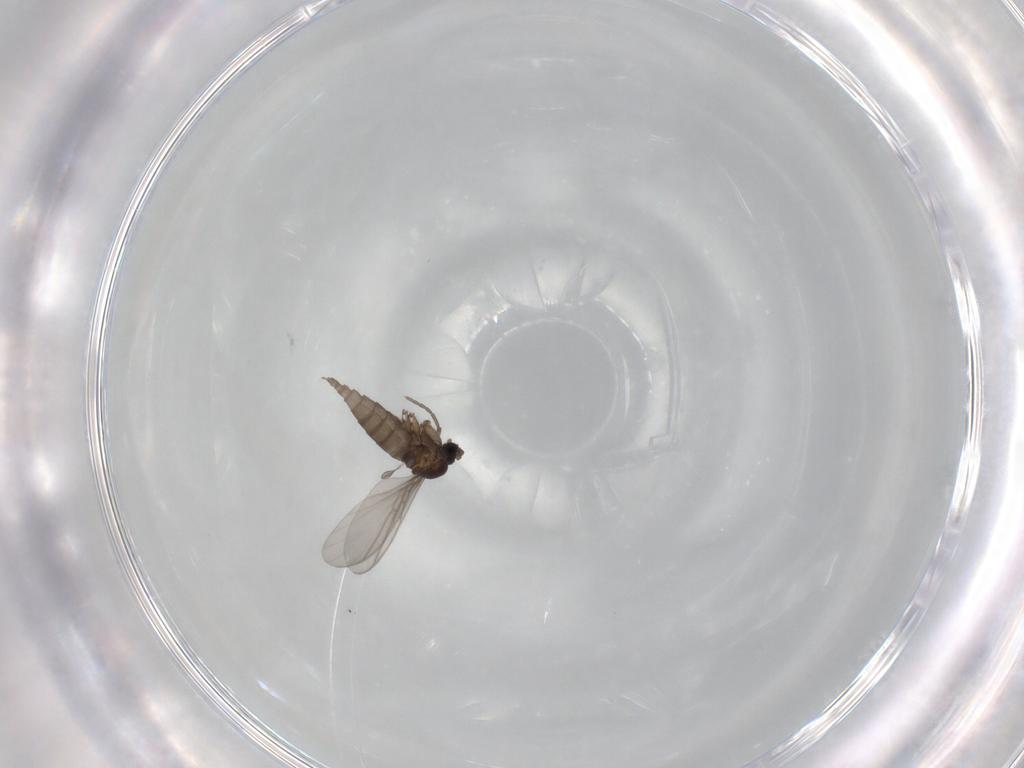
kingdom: Animalia
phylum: Arthropoda
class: Insecta
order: Diptera
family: Sciaridae
